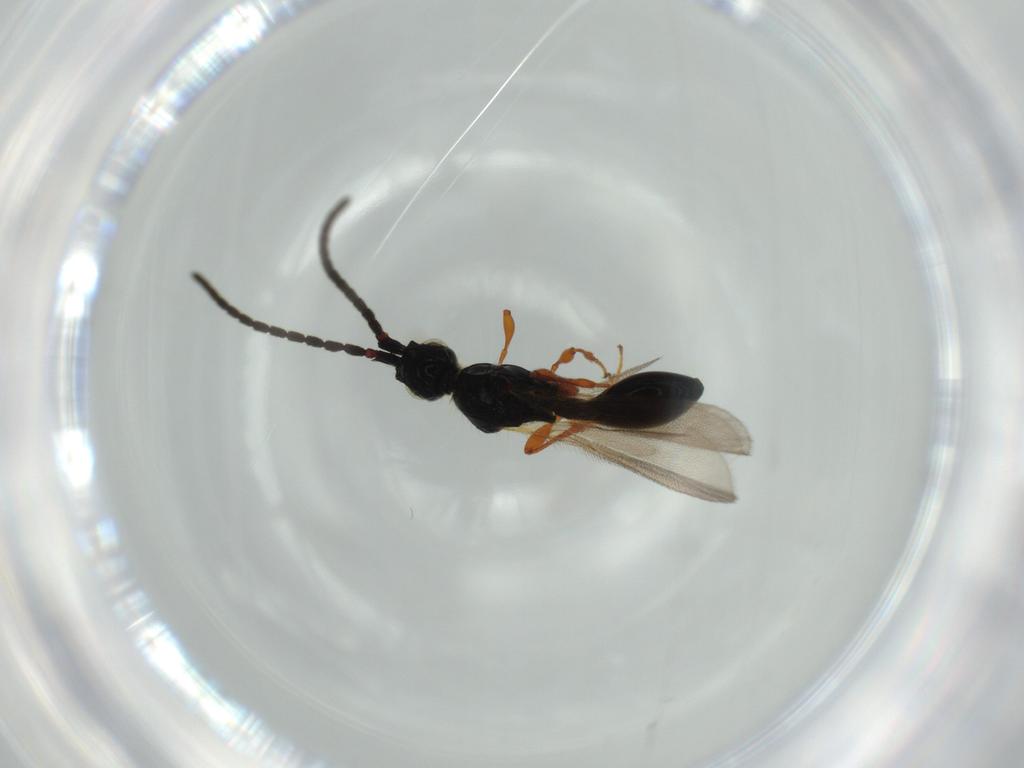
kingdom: Animalia
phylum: Arthropoda
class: Insecta
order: Hymenoptera
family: Diapriidae
